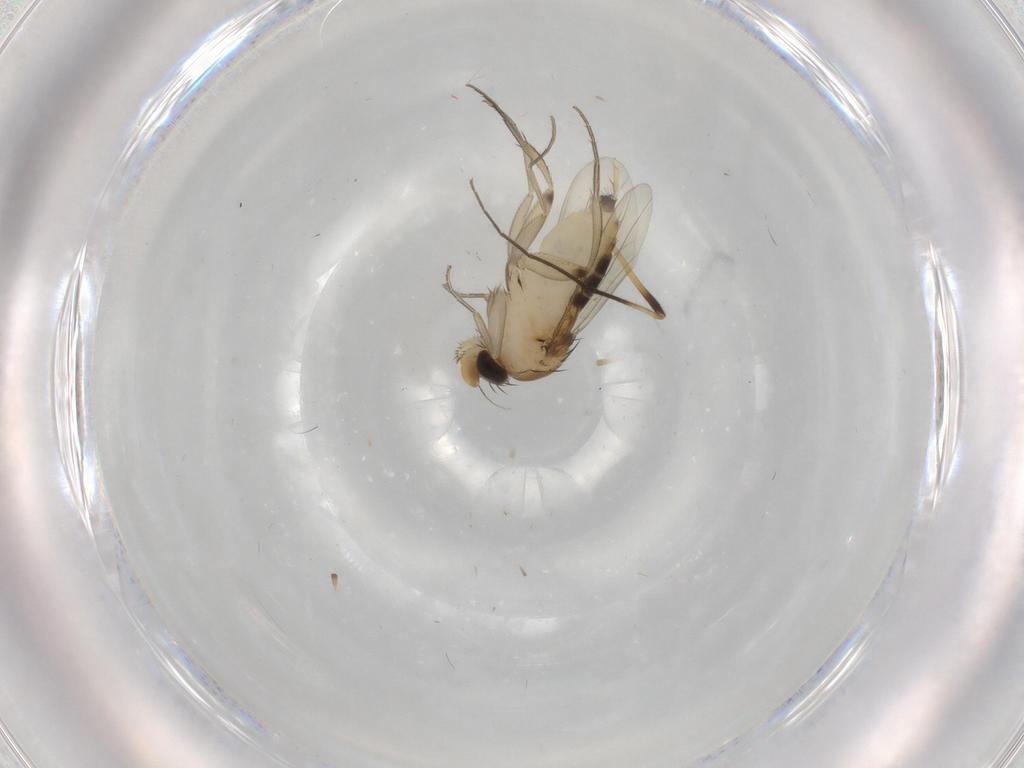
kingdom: Animalia
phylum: Arthropoda
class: Insecta
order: Diptera
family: Phoridae
